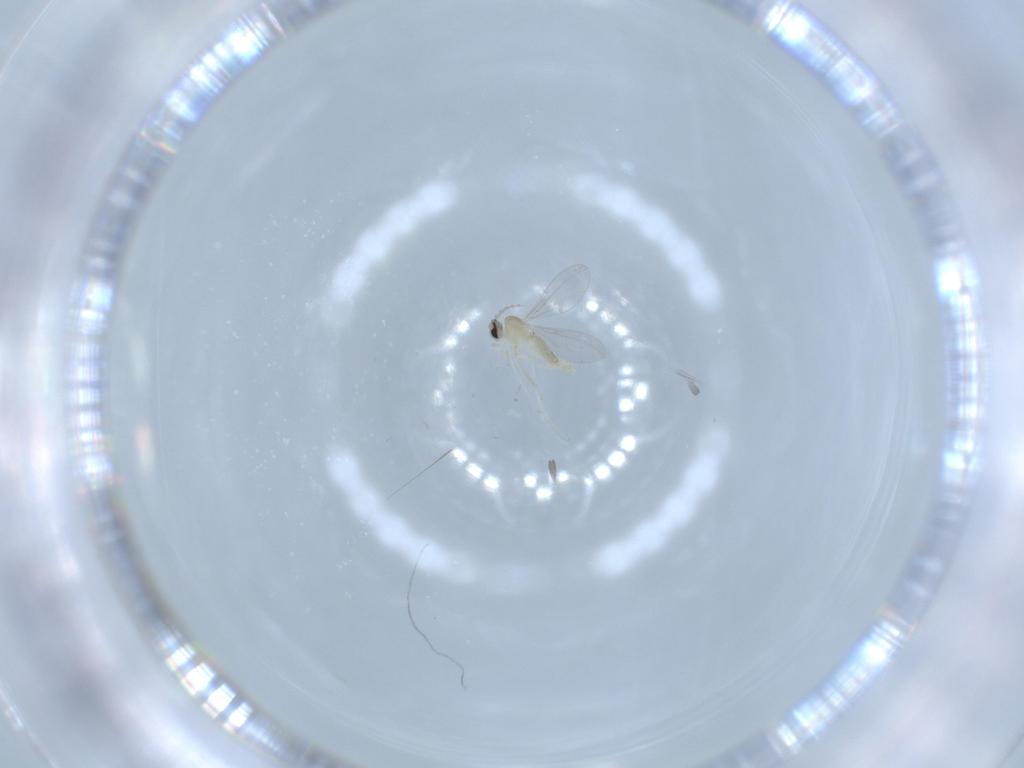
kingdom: Animalia
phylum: Arthropoda
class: Insecta
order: Diptera
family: Cecidomyiidae
